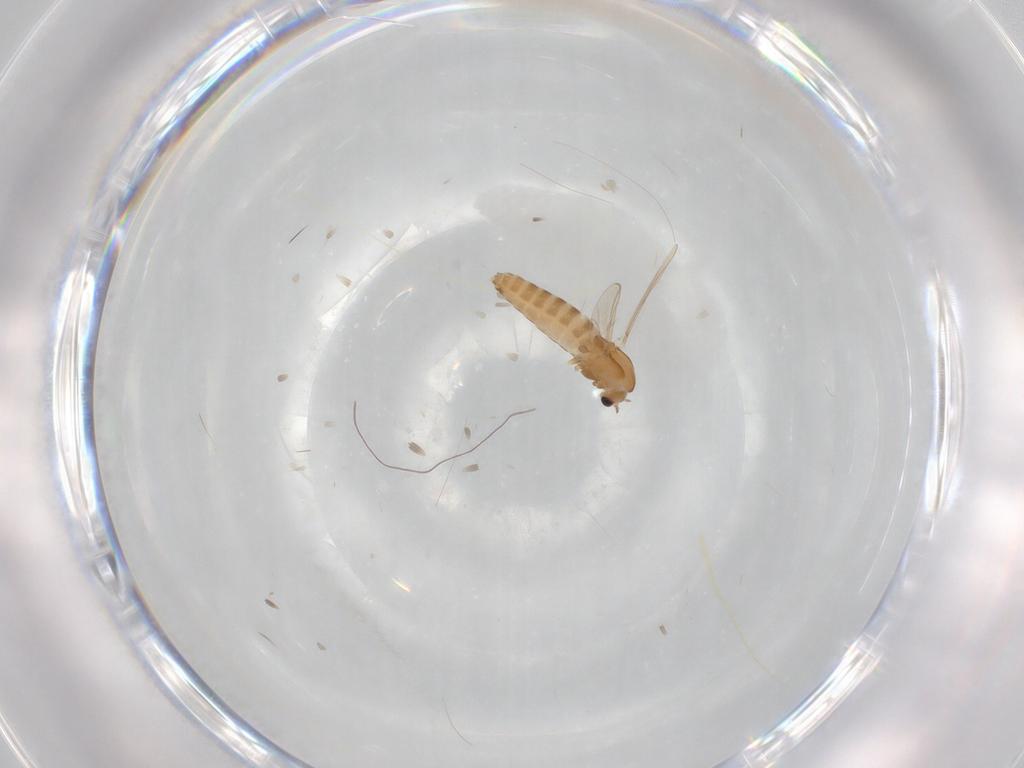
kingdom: Animalia
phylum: Arthropoda
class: Insecta
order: Diptera
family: Chironomidae
